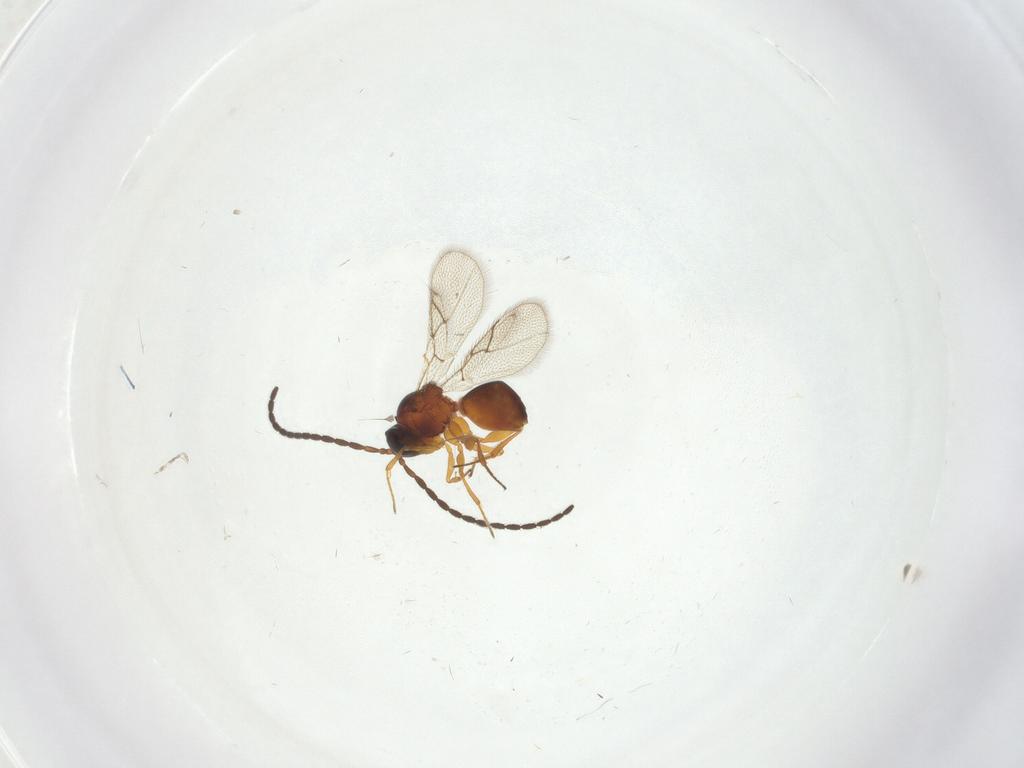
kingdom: Animalia
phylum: Arthropoda
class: Insecta
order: Hymenoptera
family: Figitidae
